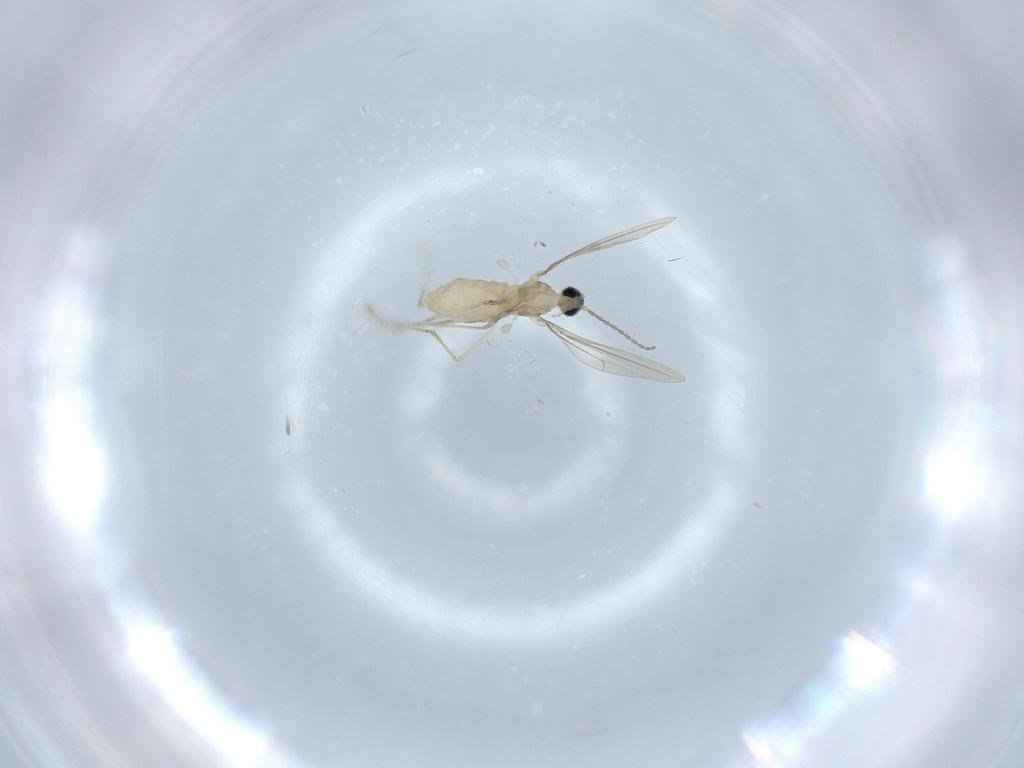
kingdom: Animalia
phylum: Arthropoda
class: Insecta
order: Diptera
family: Cecidomyiidae
